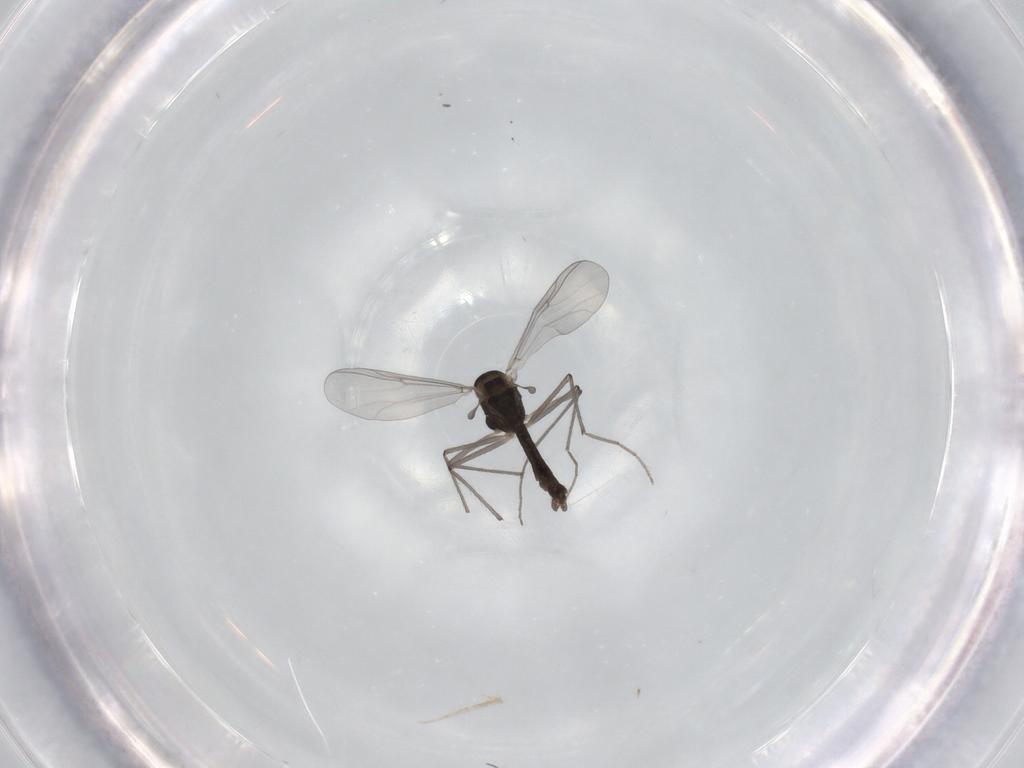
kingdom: Animalia
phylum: Arthropoda
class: Insecta
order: Diptera
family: Chironomidae
